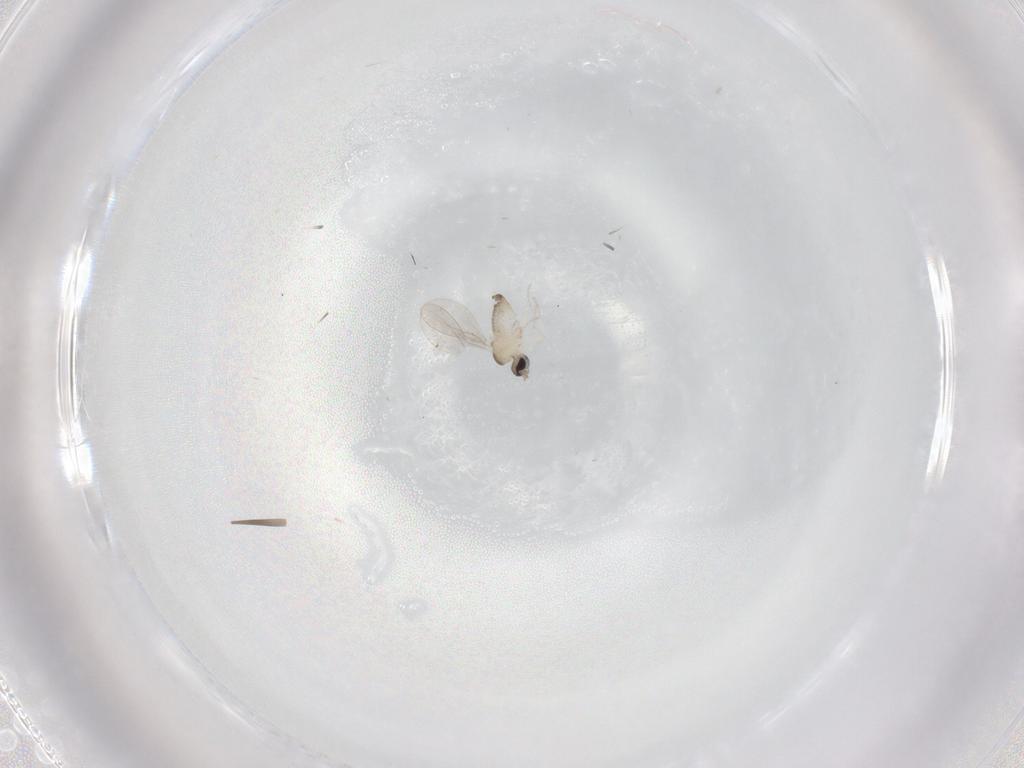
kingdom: Animalia
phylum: Arthropoda
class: Insecta
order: Diptera
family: Cecidomyiidae
